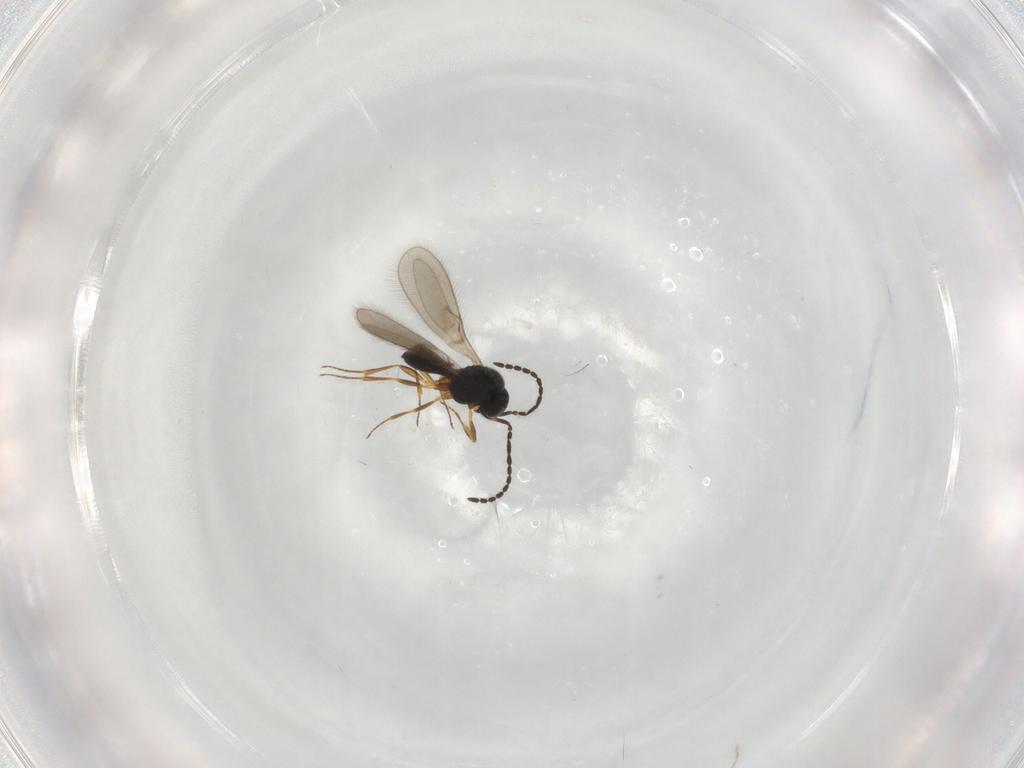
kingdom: Animalia
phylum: Arthropoda
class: Insecta
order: Hymenoptera
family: Scelionidae
